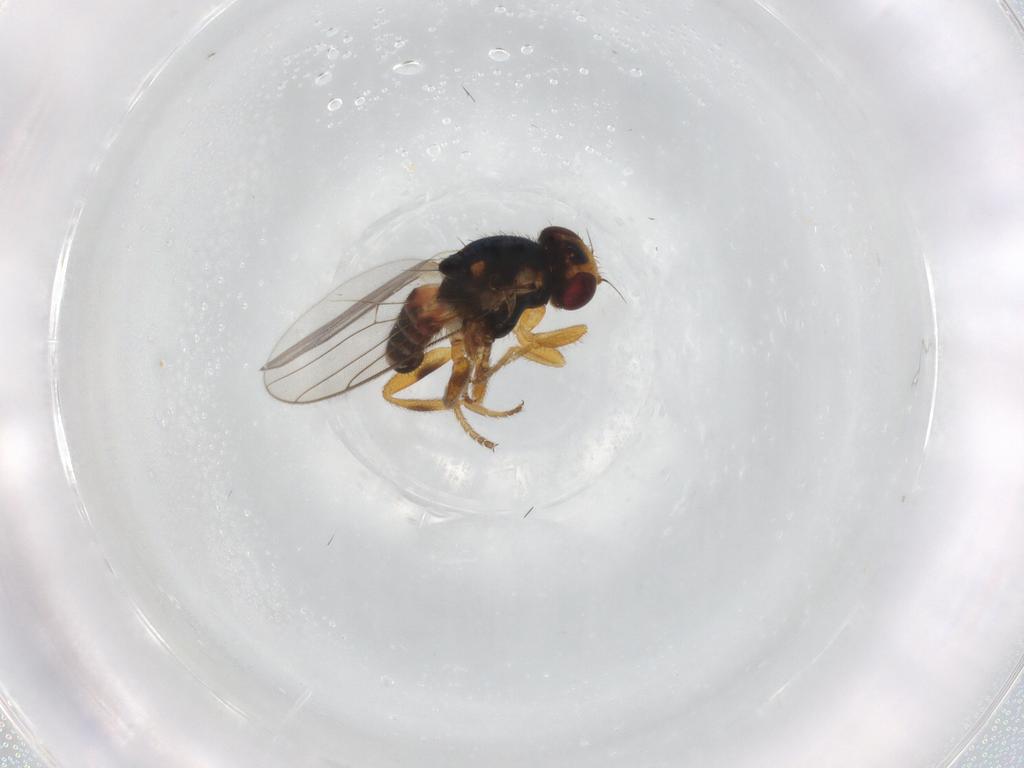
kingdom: Animalia
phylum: Arthropoda
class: Insecta
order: Diptera
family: Chloropidae
